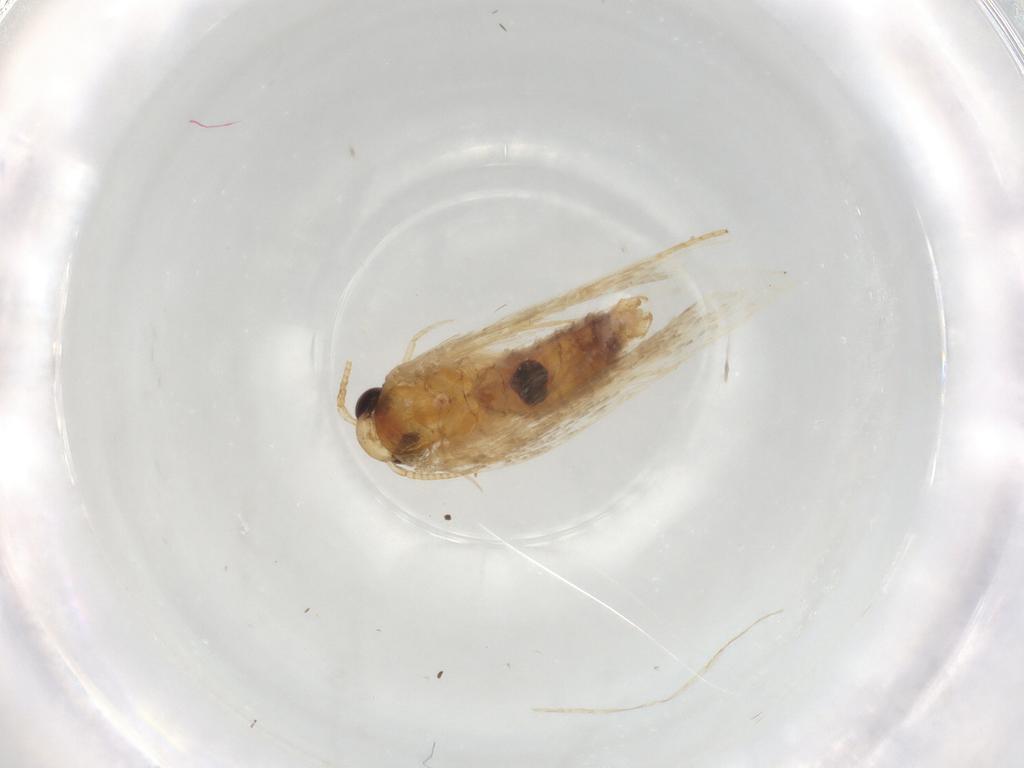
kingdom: Animalia
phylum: Arthropoda
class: Insecta
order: Lepidoptera
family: Depressariidae
